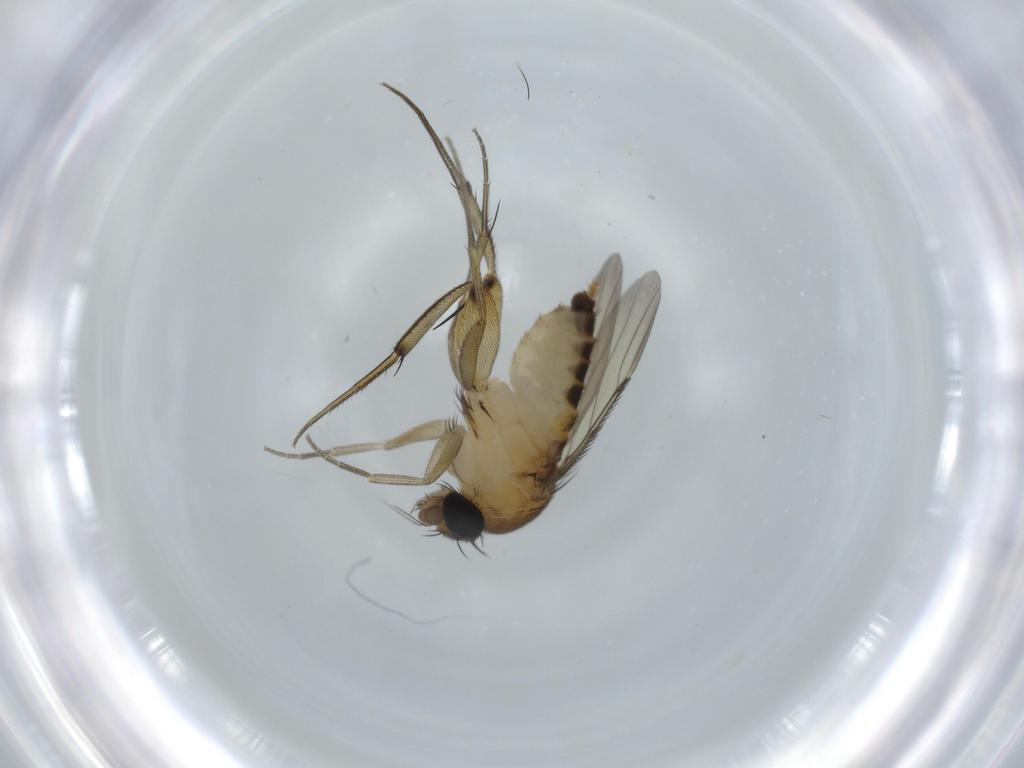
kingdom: Animalia
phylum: Arthropoda
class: Insecta
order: Diptera
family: Phoridae
